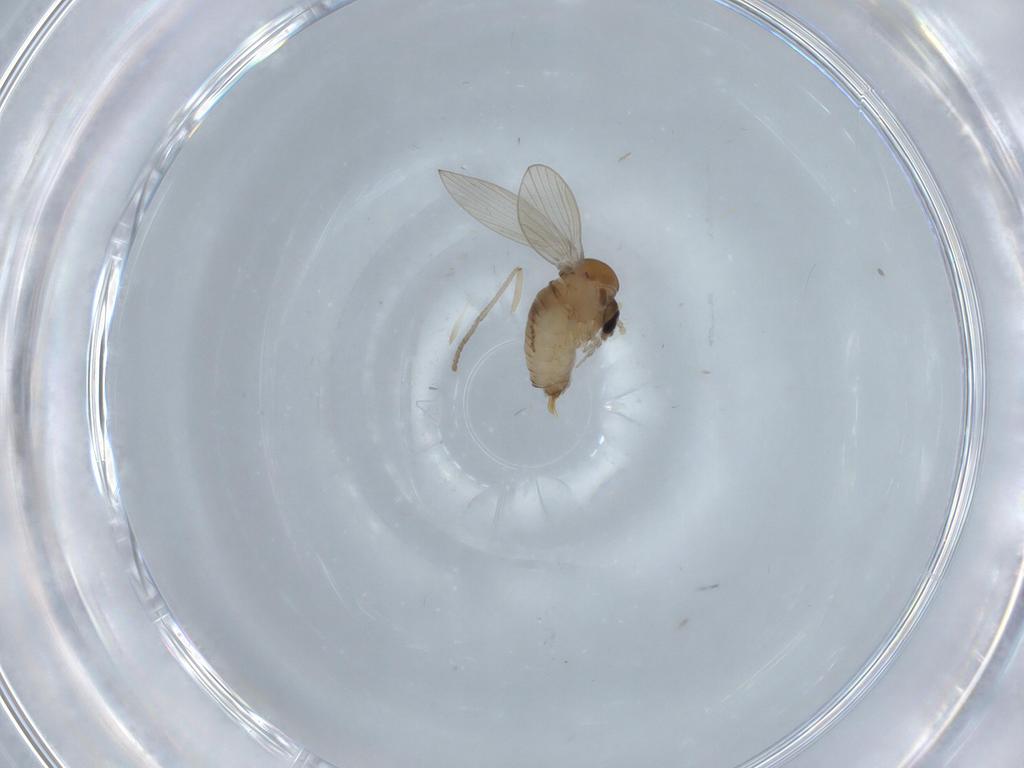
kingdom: Animalia
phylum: Arthropoda
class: Insecta
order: Diptera
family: Psychodidae
